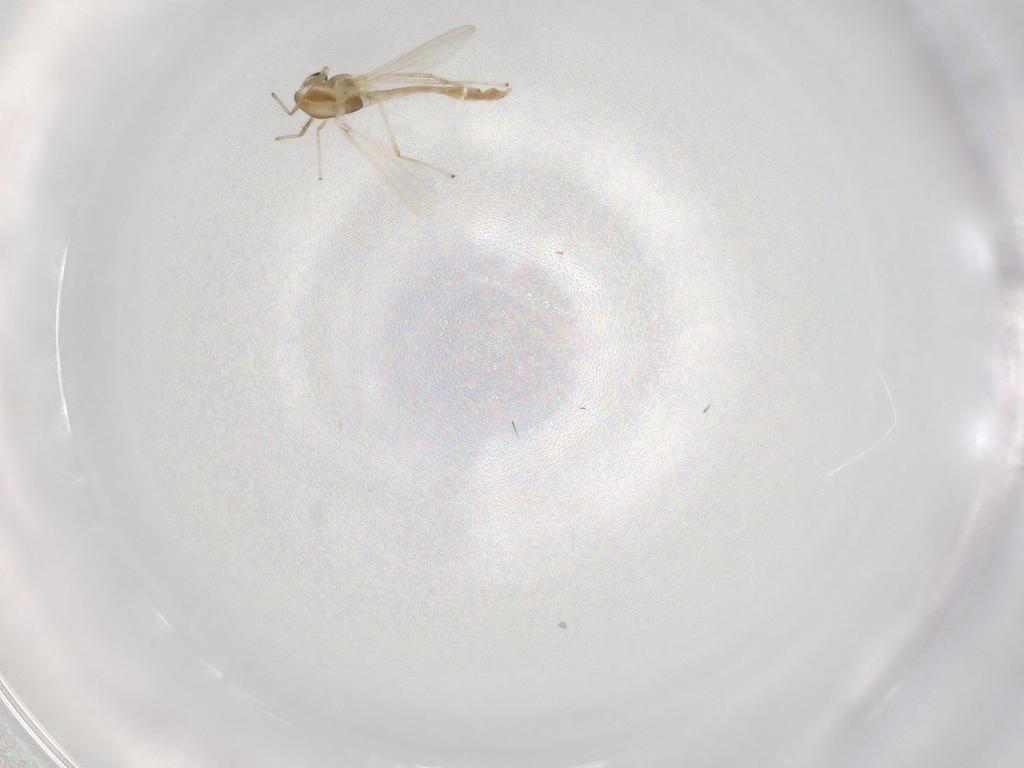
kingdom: Animalia
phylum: Arthropoda
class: Insecta
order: Diptera
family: Chironomidae
